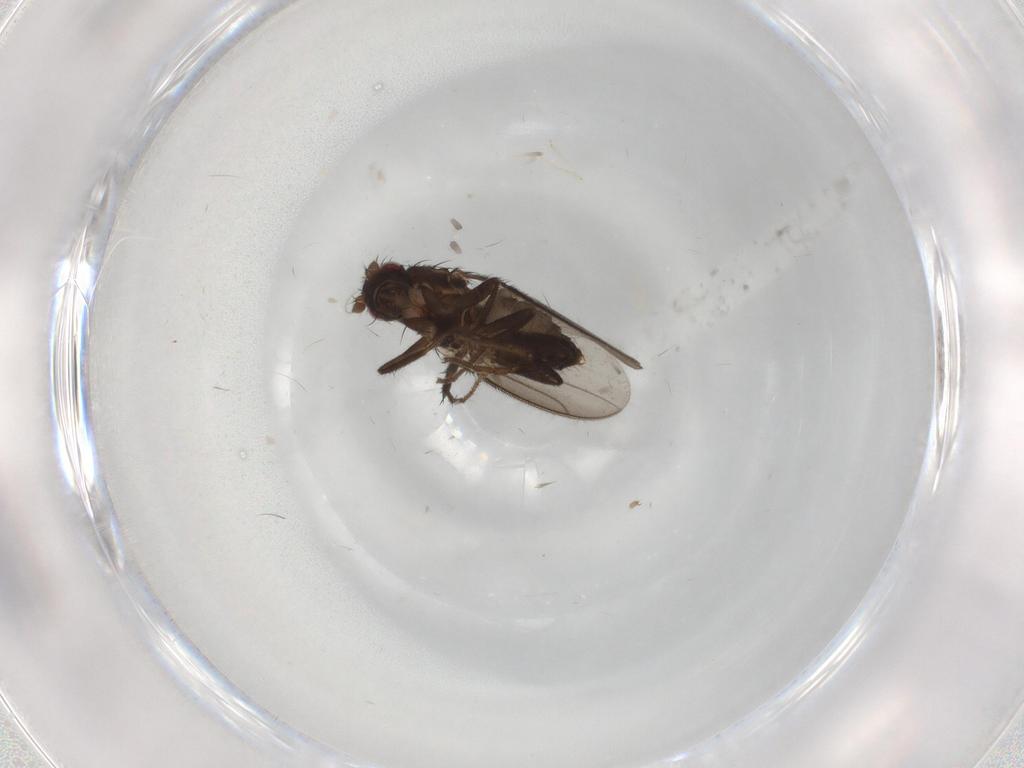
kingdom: Animalia
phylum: Arthropoda
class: Insecta
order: Diptera
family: Sphaeroceridae
